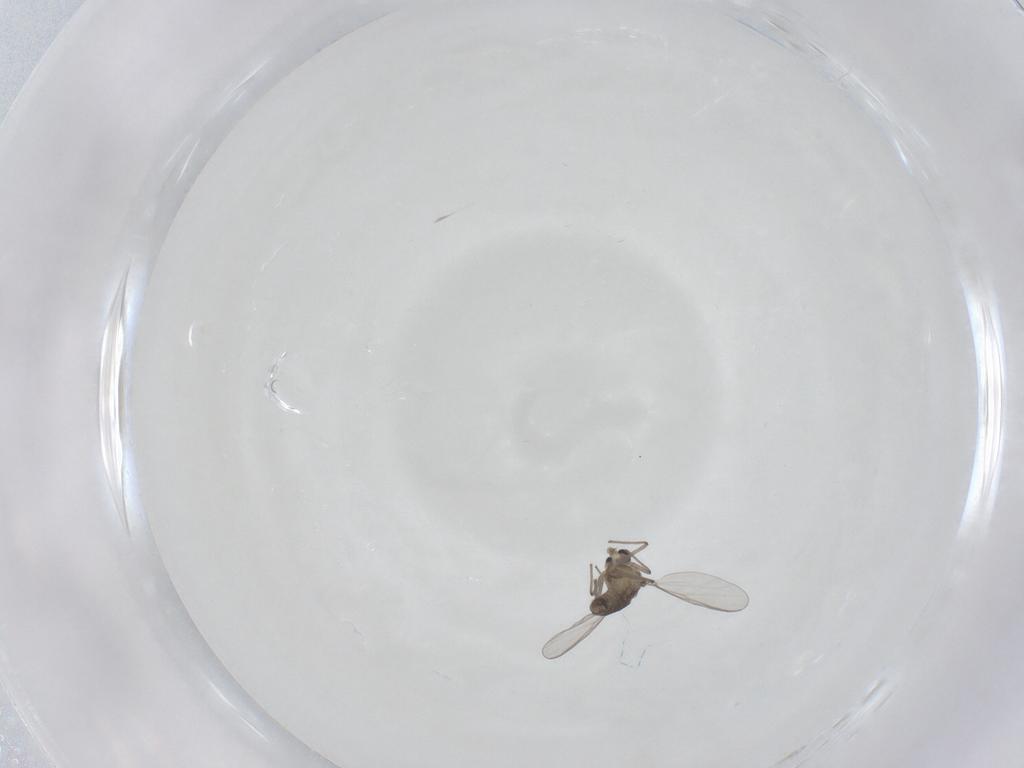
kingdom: Animalia
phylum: Arthropoda
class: Insecta
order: Diptera
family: Chironomidae
